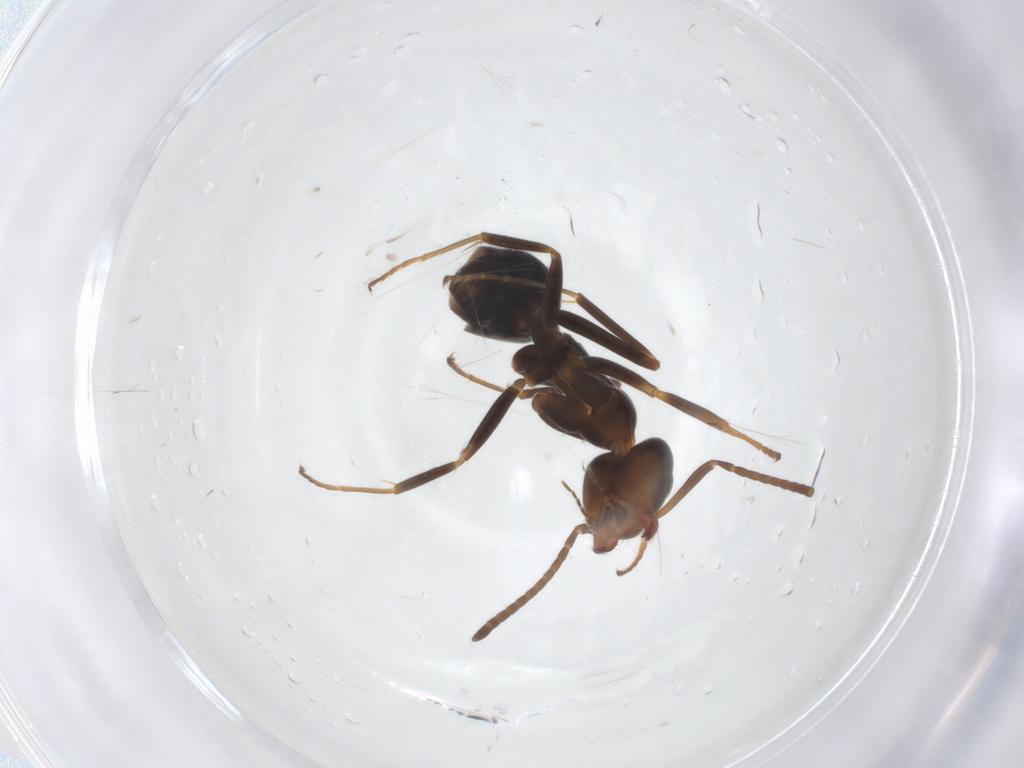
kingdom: Animalia
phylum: Arthropoda
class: Insecta
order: Hymenoptera
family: Formicidae
